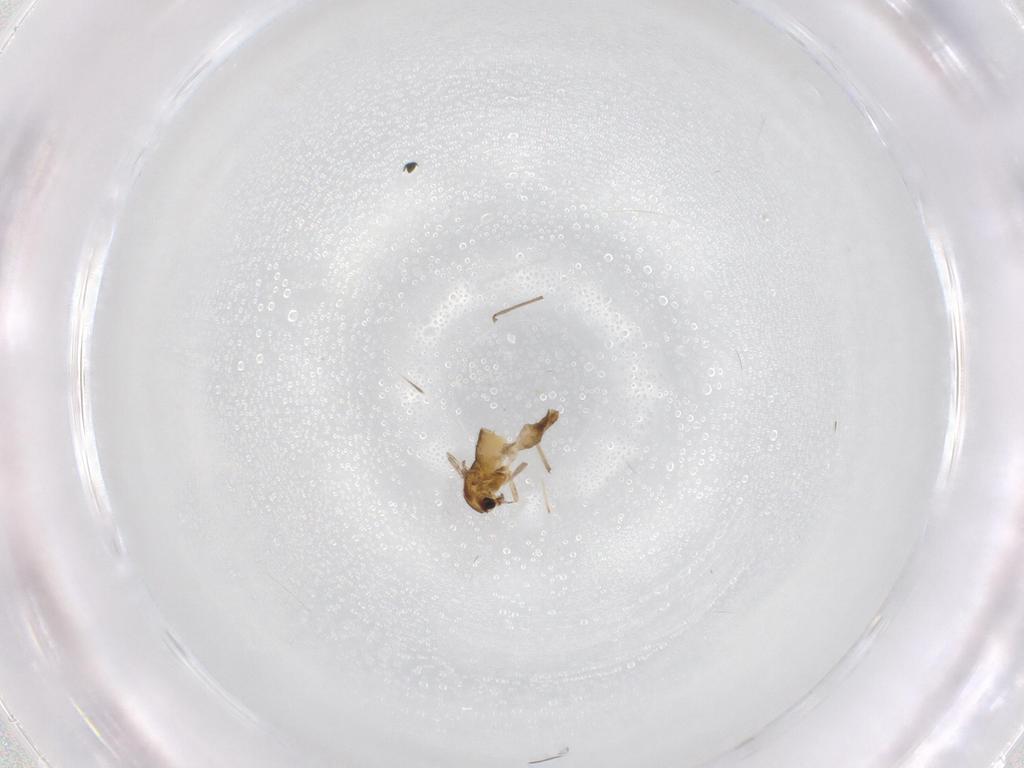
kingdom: Animalia
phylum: Arthropoda
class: Insecta
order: Diptera
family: Chironomidae
